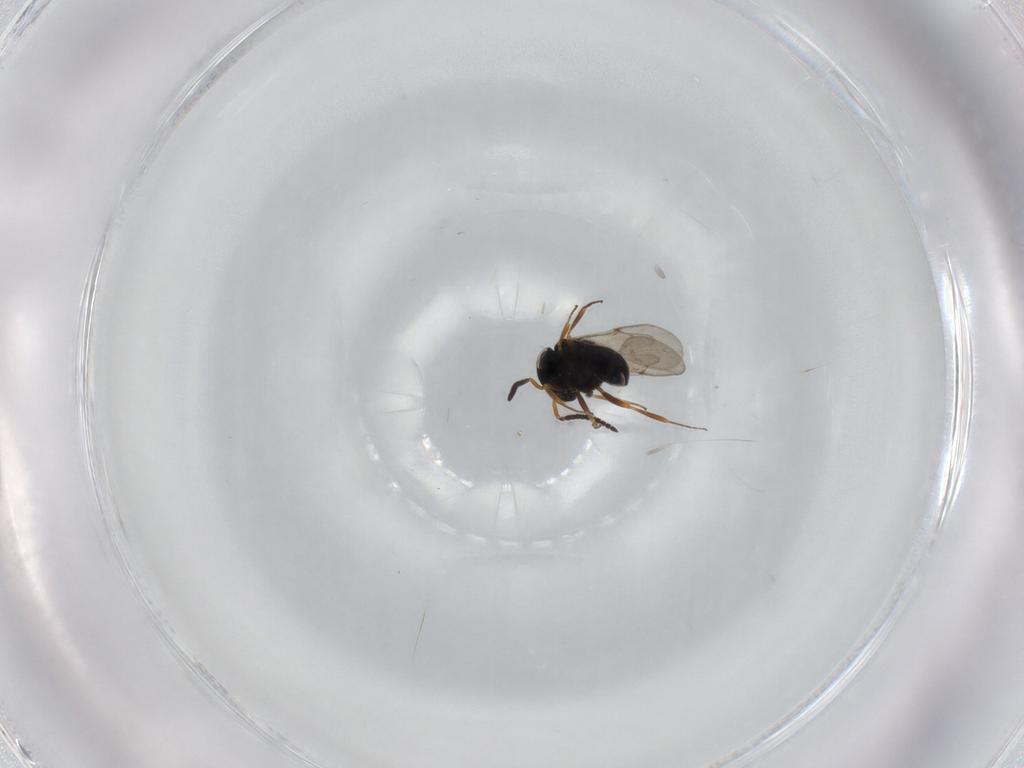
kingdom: Animalia
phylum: Arthropoda
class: Insecta
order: Hymenoptera
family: Scelionidae
